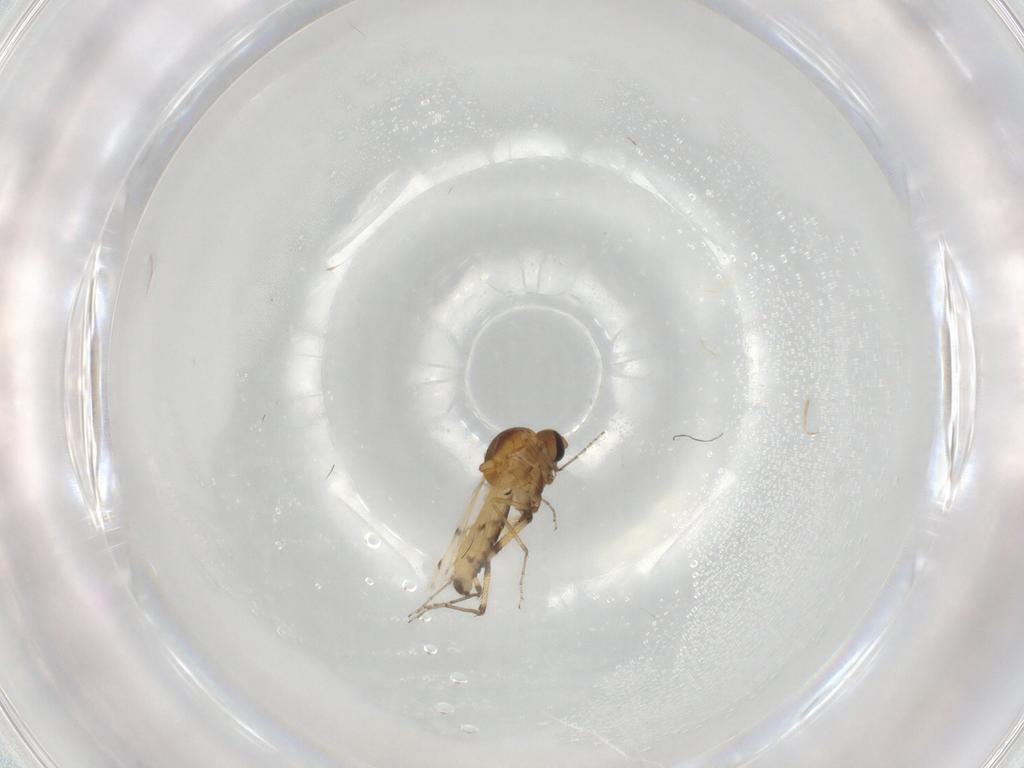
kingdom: Animalia
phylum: Arthropoda
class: Insecta
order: Diptera
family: Ceratopogonidae
